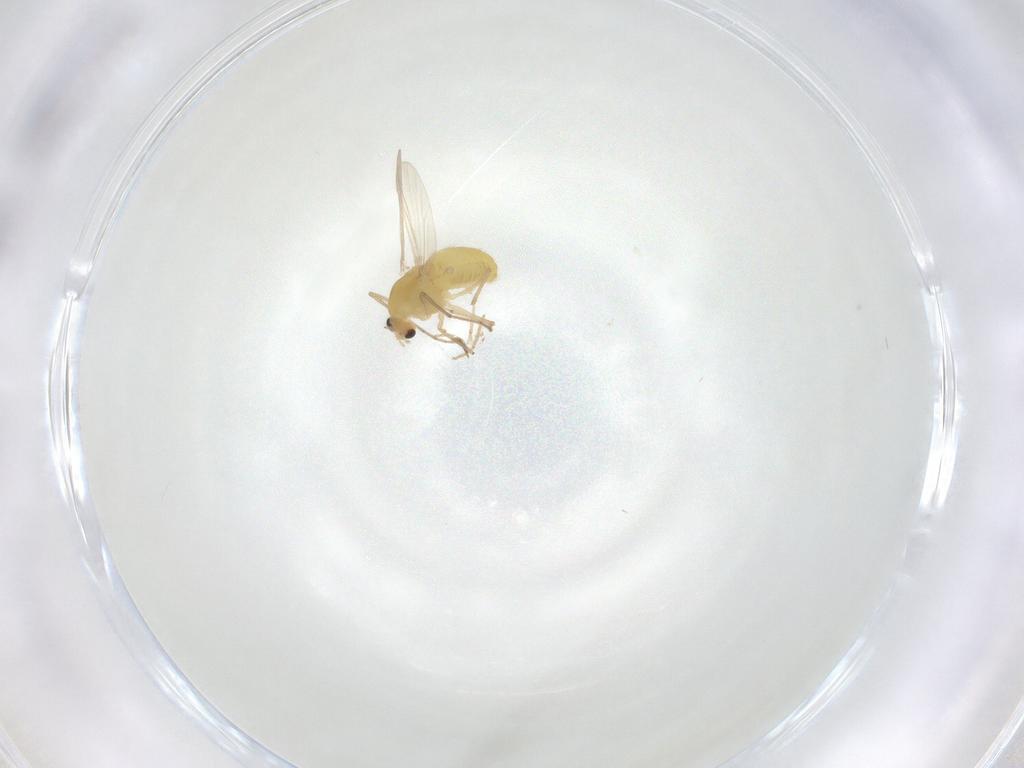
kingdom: Animalia
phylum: Arthropoda
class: Insecta
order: Diptera
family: Chironomidae
